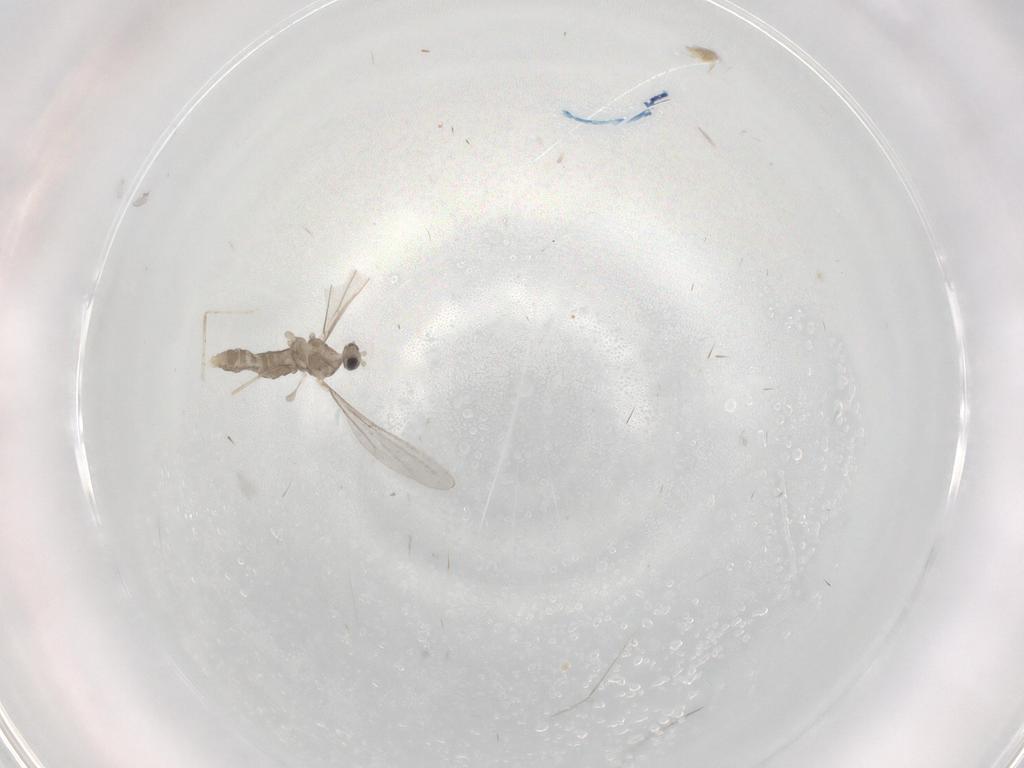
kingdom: Animalia
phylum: Arthropoda
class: Insecta
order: Diptera
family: Cecidomyiidae
